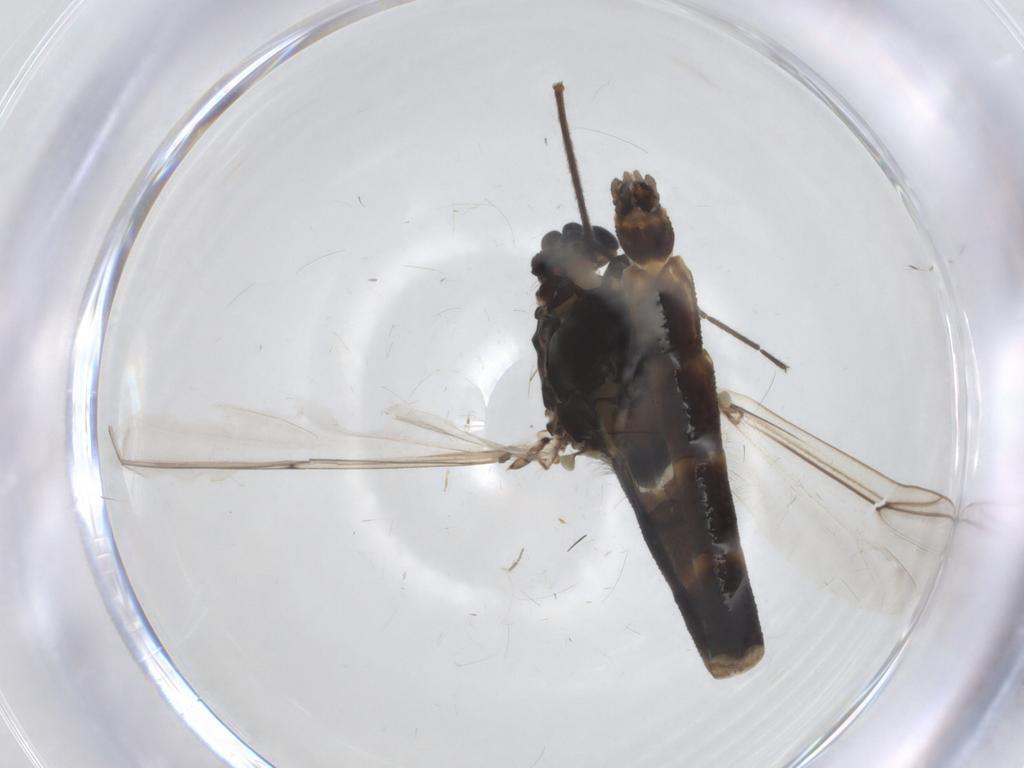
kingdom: Animalia
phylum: Arthropoda
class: Insecta
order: Diptera
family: Chironomidae
